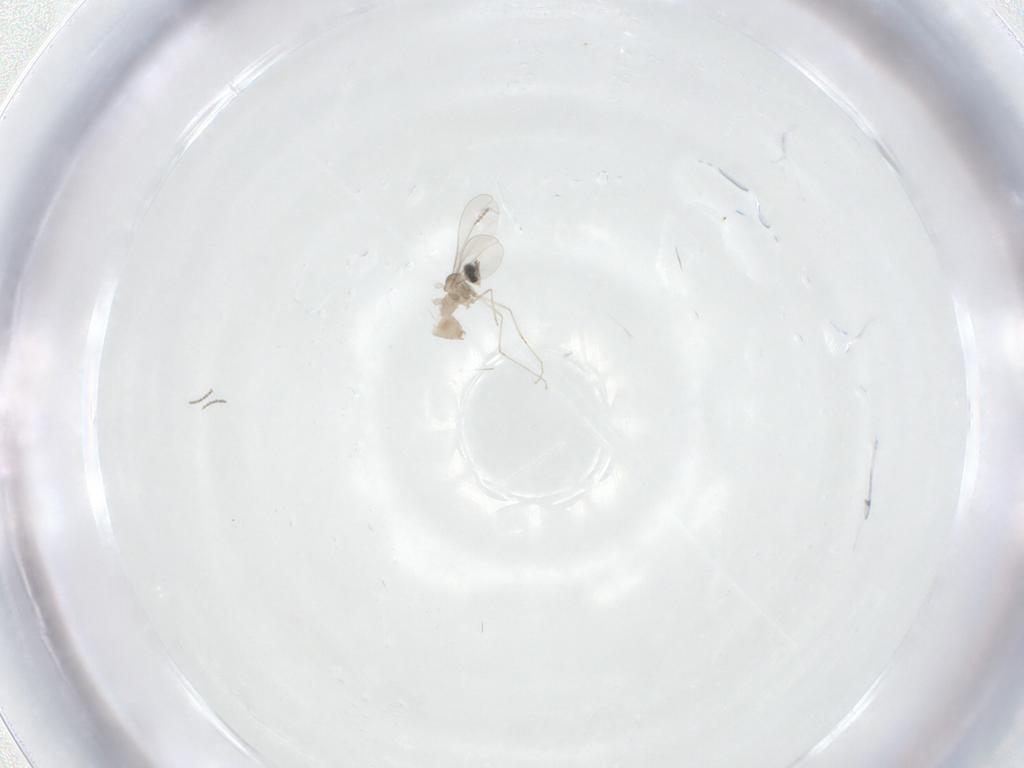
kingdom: Animalia
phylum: Arthropoda
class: Insecta
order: Diptera
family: Cecidomyiidae
